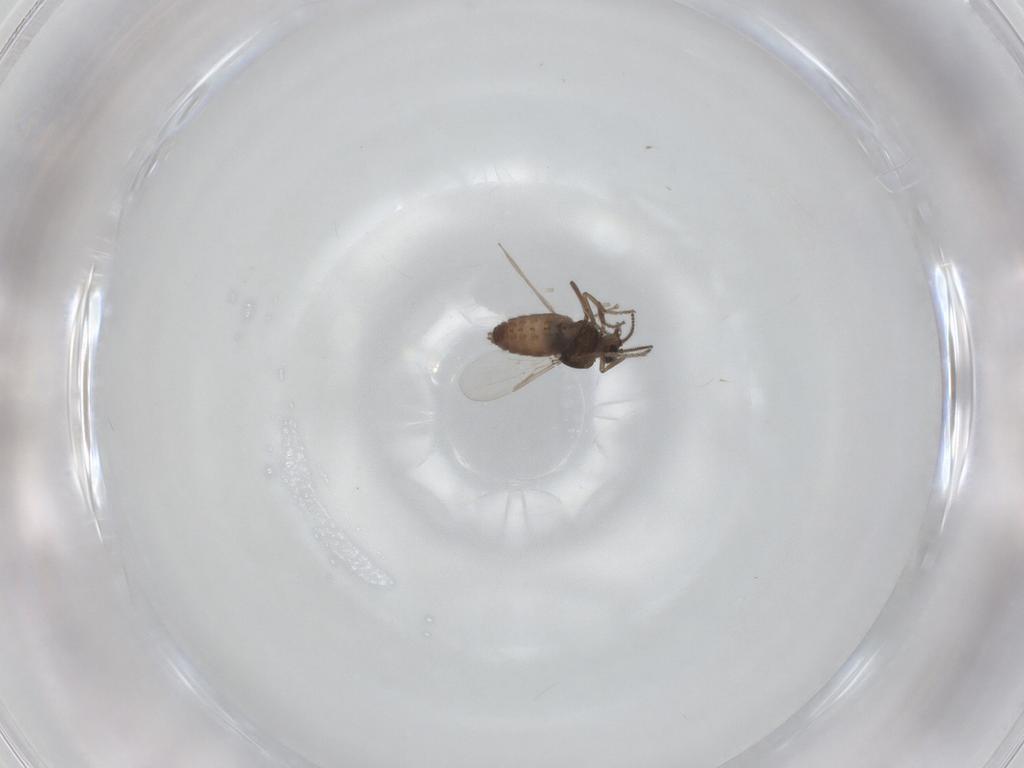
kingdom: Animalia
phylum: Arthropoda
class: Insecta
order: Diptera
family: Ceratopogonidae
